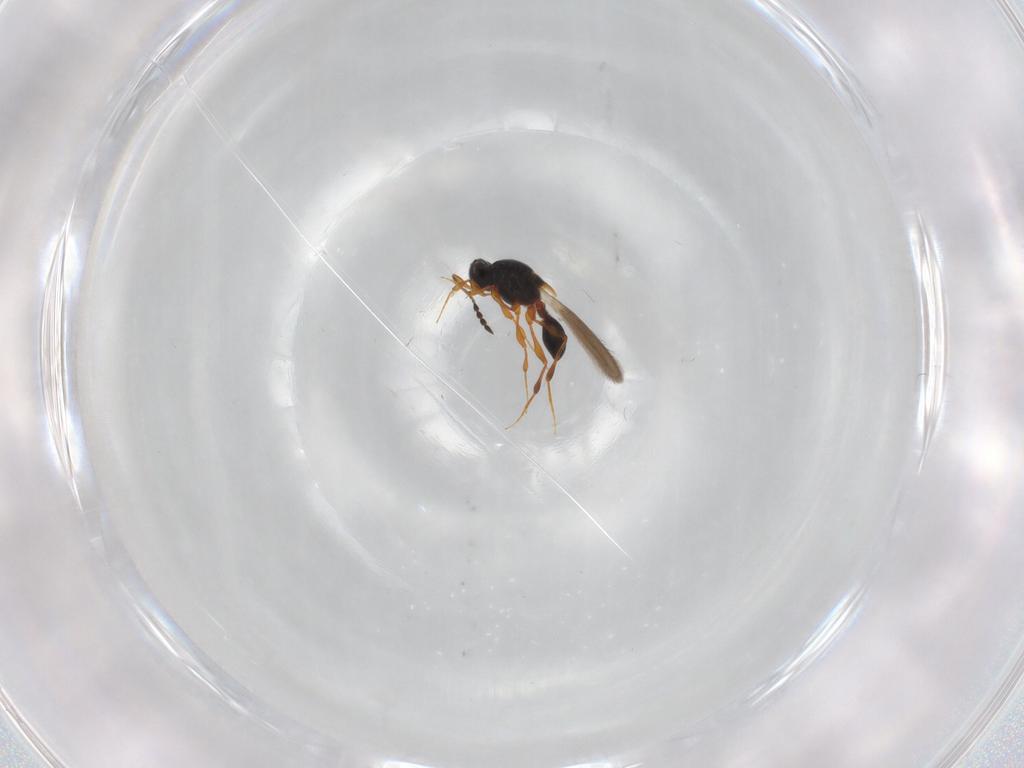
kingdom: Animalia
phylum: Arthropoda
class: Insecta
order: Hymenoptera
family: Platygastridae
